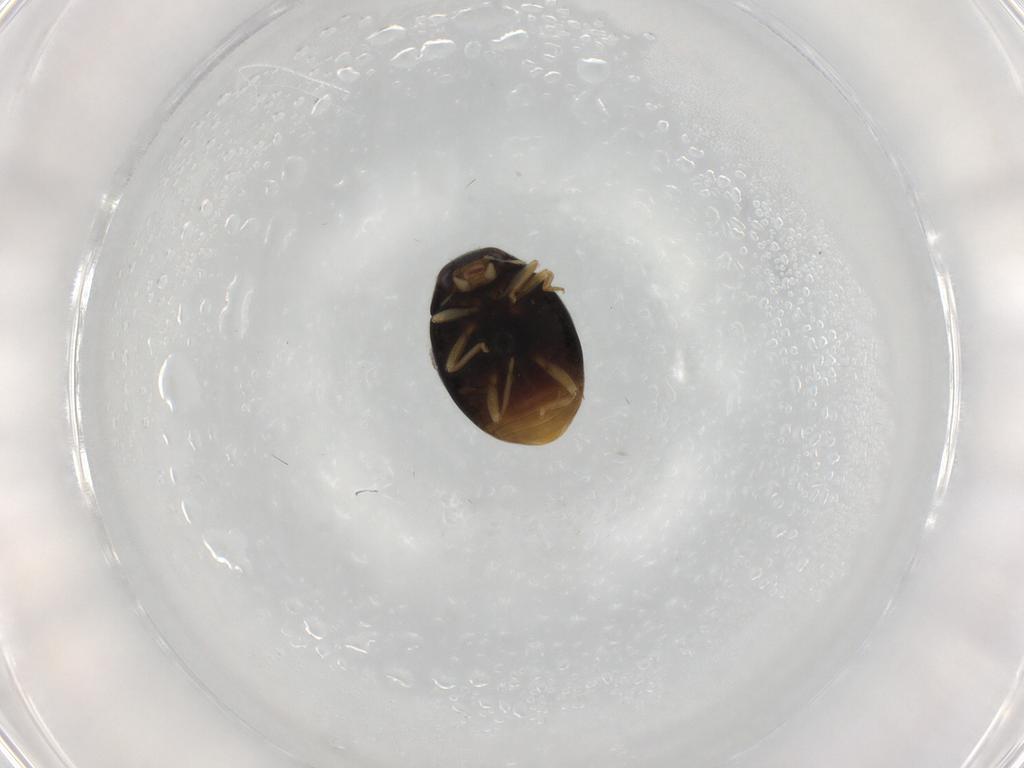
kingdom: Animalia
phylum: Arthropoda
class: Insecta
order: Coleoptera
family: Coccinellidae
